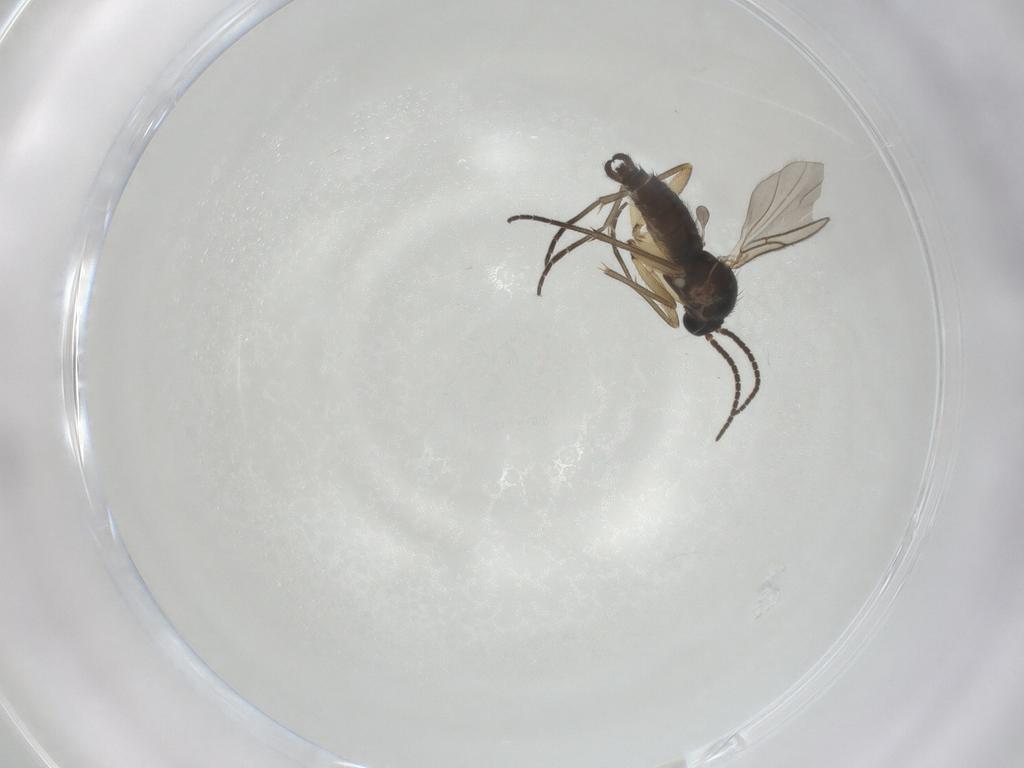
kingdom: Animalia
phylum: Arthropoda
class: Insecta
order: Diptera
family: Sciaridae
